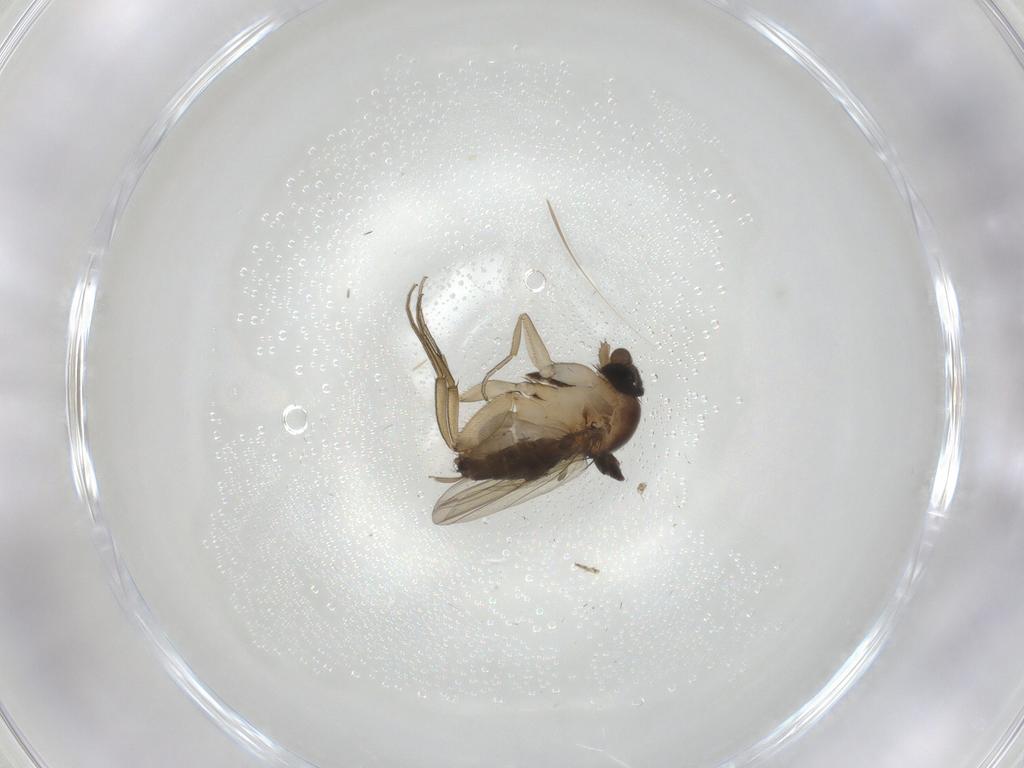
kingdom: Animalia
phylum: Arthropoda
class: Insecta
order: Diptera
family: Phoridae
